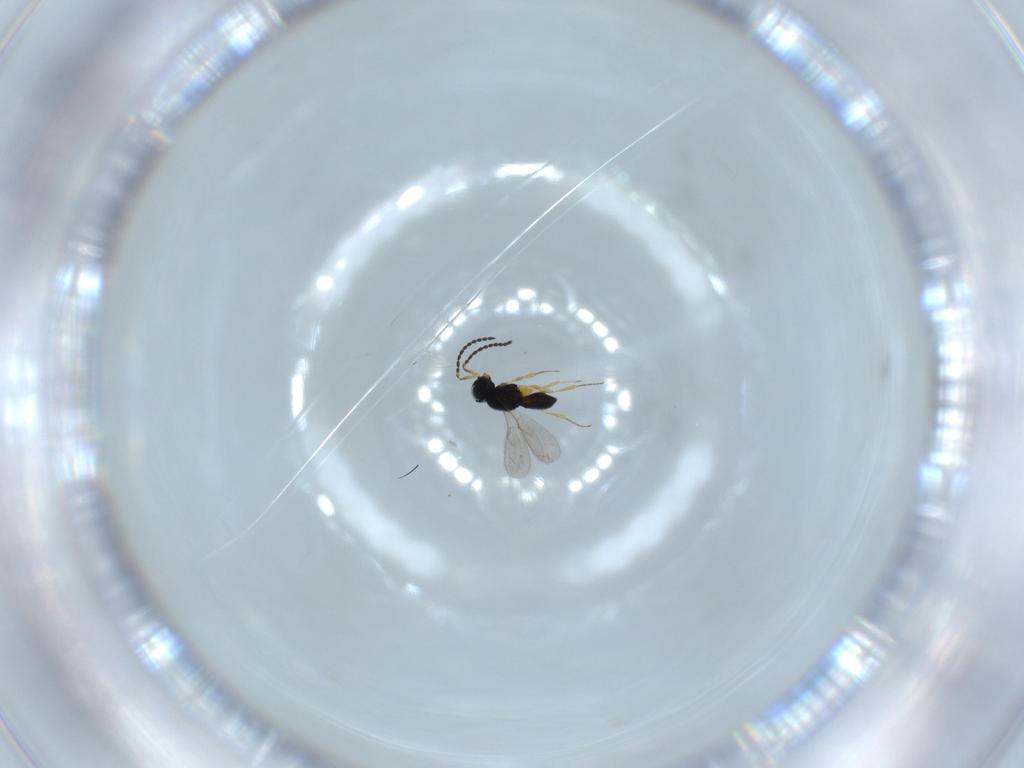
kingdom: Animalia
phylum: Arthropoda
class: Insecta
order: Hymenoptera
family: Scelionidae
